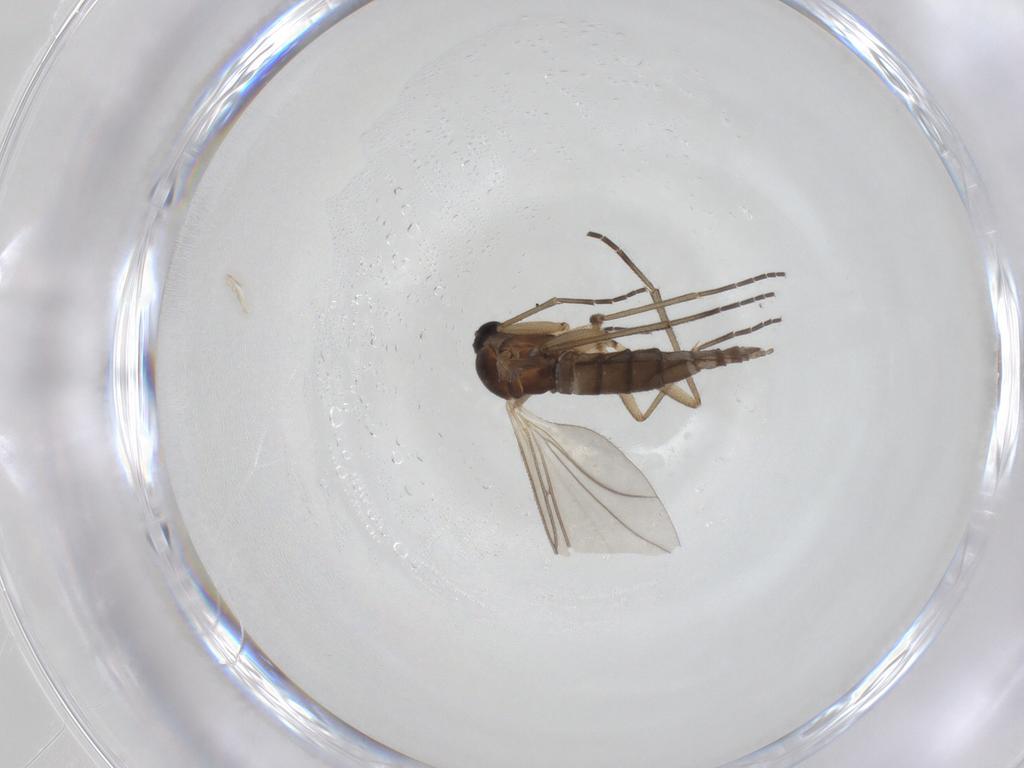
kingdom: Animalia
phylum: Arthropoda
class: Insecta
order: Diptera
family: Sciaridae
